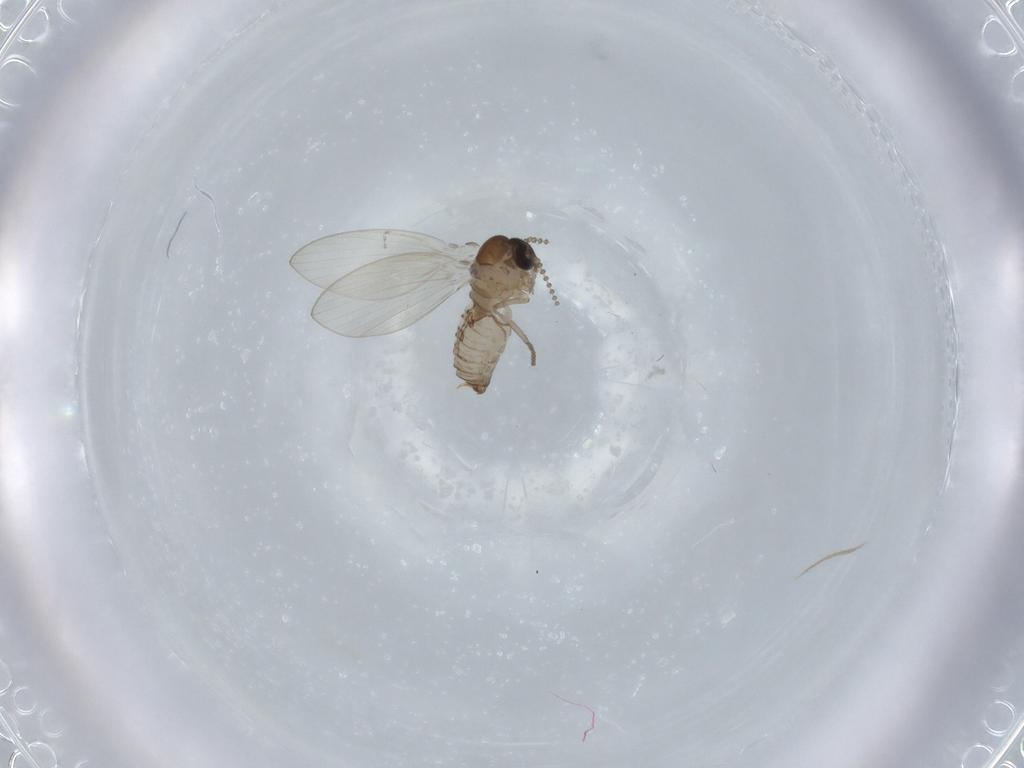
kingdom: Animalia
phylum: Arthropoda
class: Insecta
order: Diptera
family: Psychodidae
